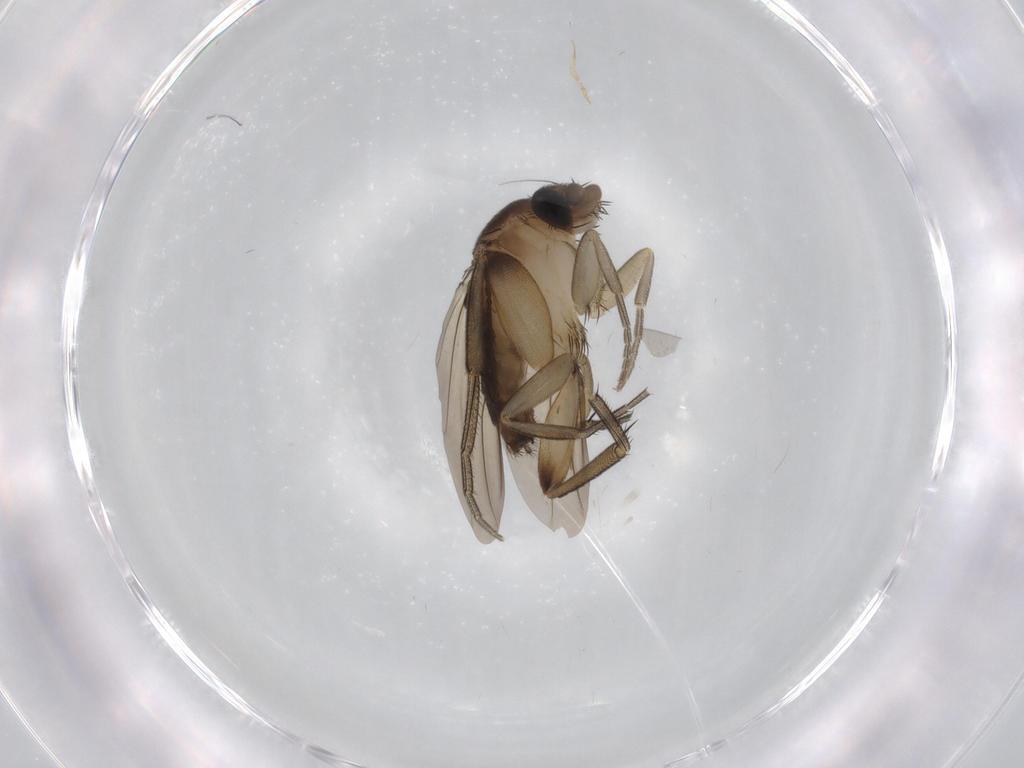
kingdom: Animalia
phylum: Arthropoda
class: Insecta
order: Diptera
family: Phoridae
